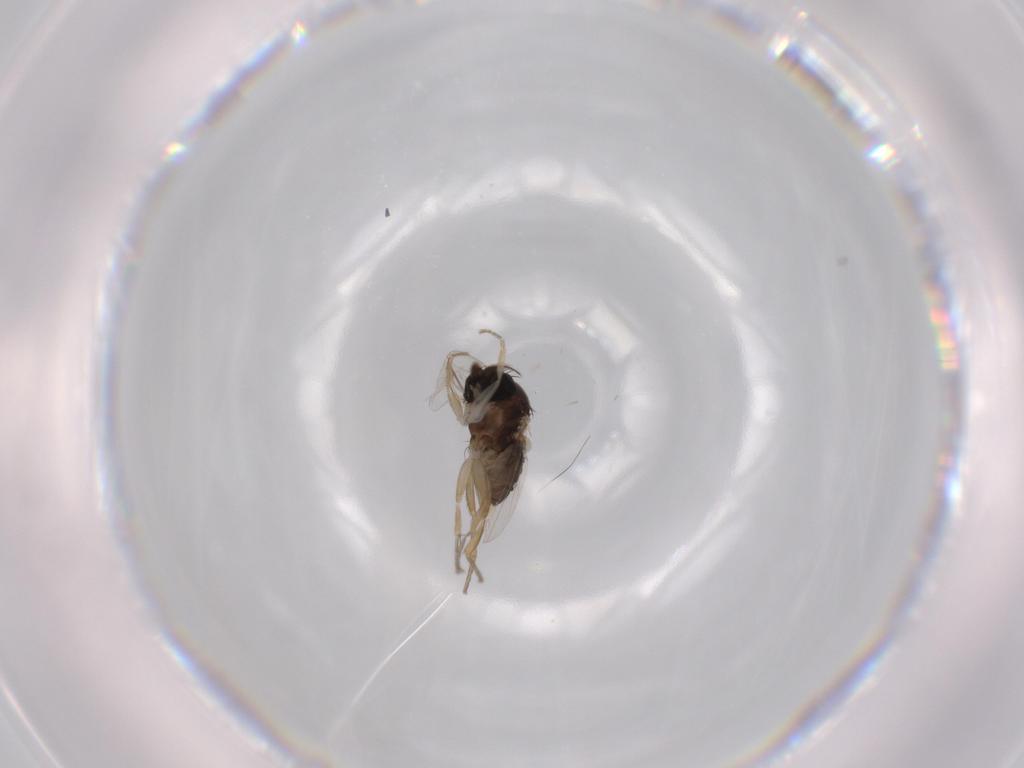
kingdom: Animalia
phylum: Arthropoda
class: Insecta
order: Diptera
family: Phoridae
